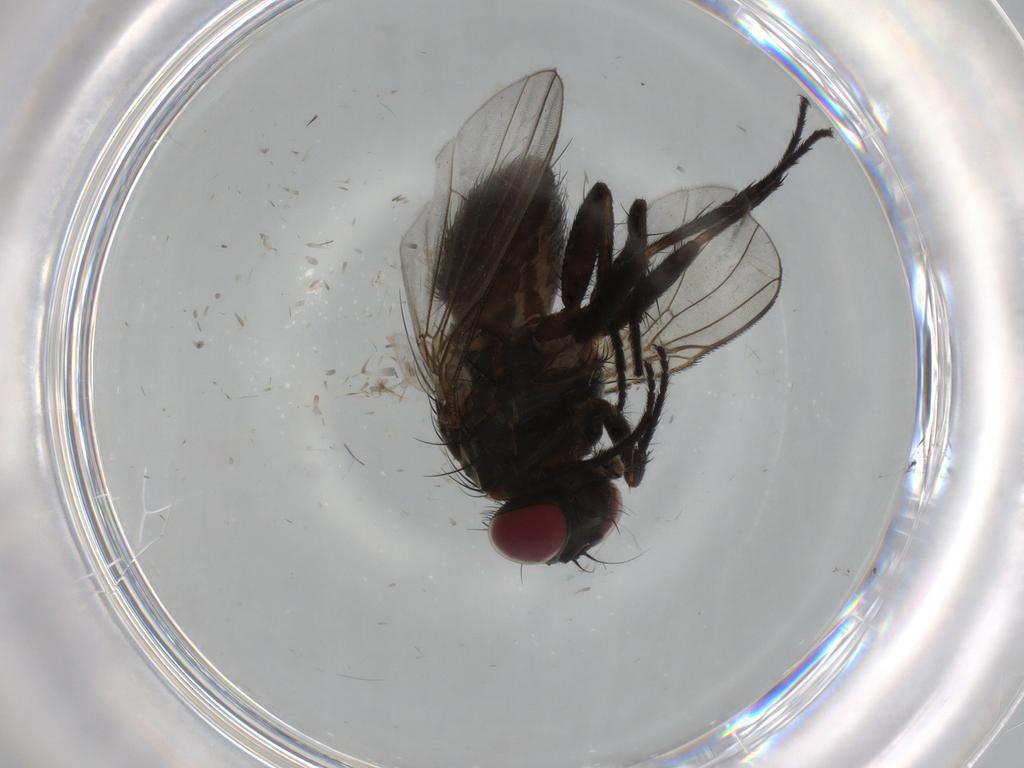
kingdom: Animalia
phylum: Arthropoda
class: Insecta
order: Diptera
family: Muscidae
